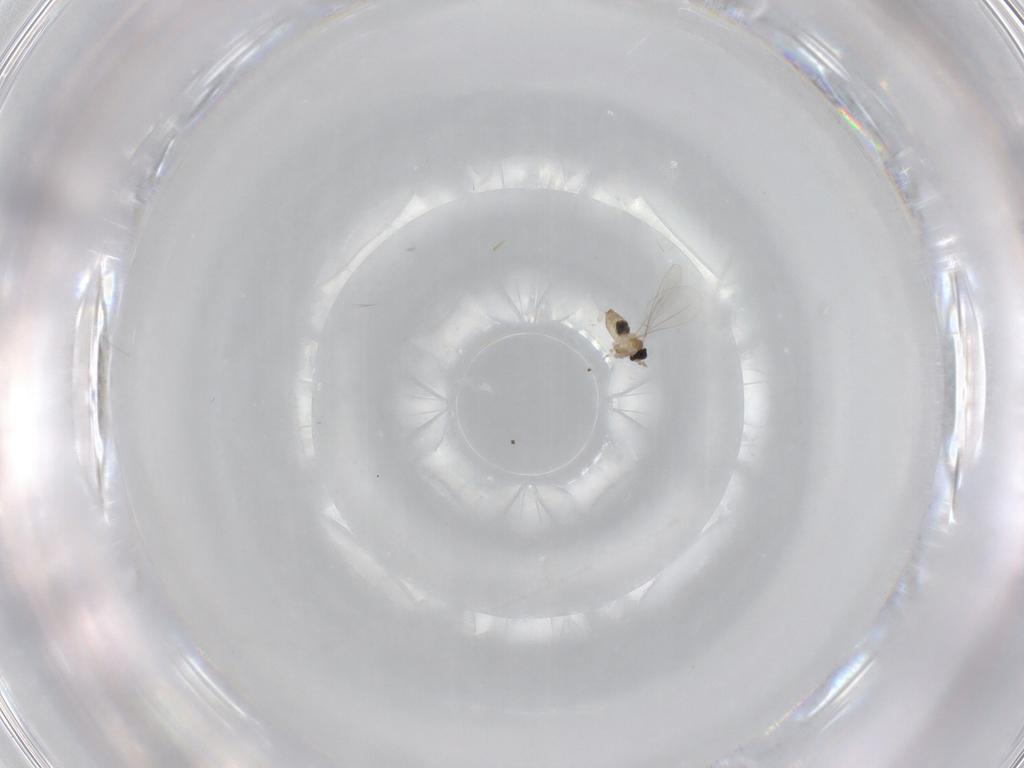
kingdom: Animalia
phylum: Arthropoda
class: Insecta
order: Diptera
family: Cecidomyiidae
